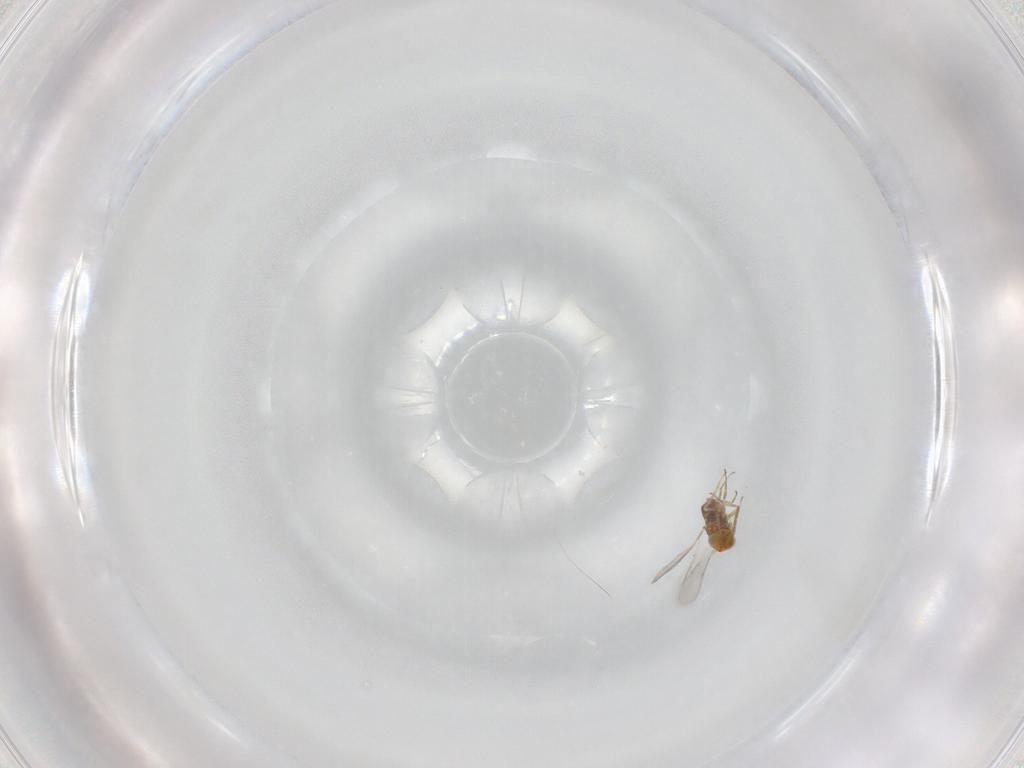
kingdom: Animalia
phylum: Arthropoda
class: Insecta
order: Hymenoptera
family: Aphelinidae
